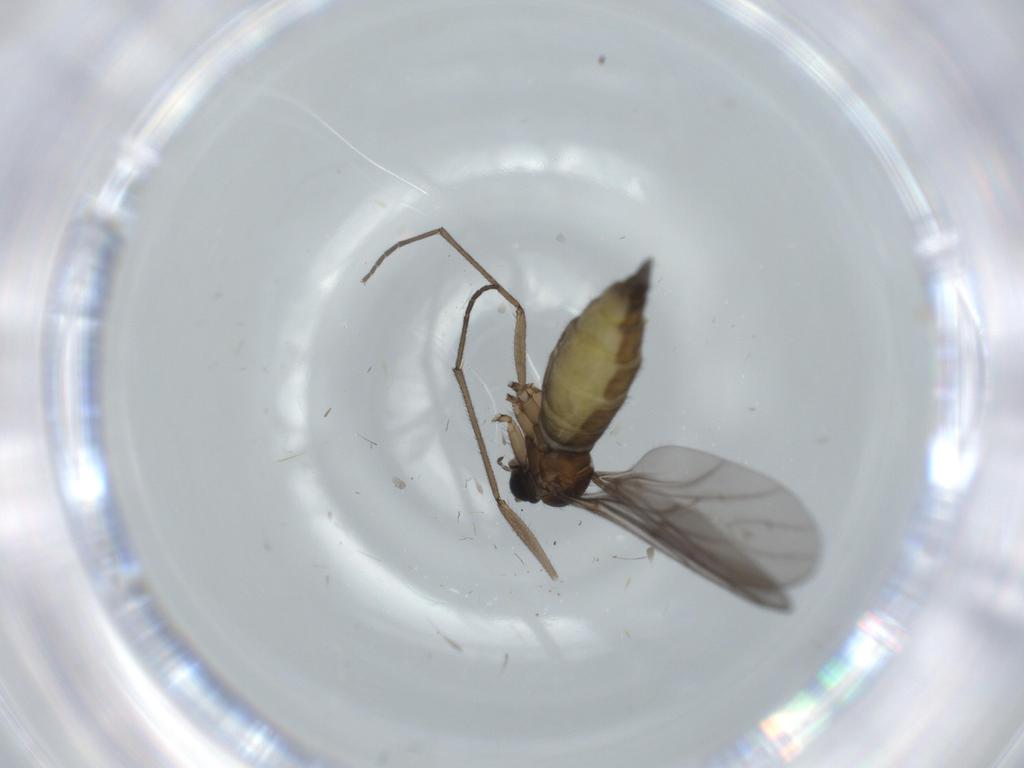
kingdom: Animalia
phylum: Arthropoda
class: Insecta
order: Diptera
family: Sciaridae
